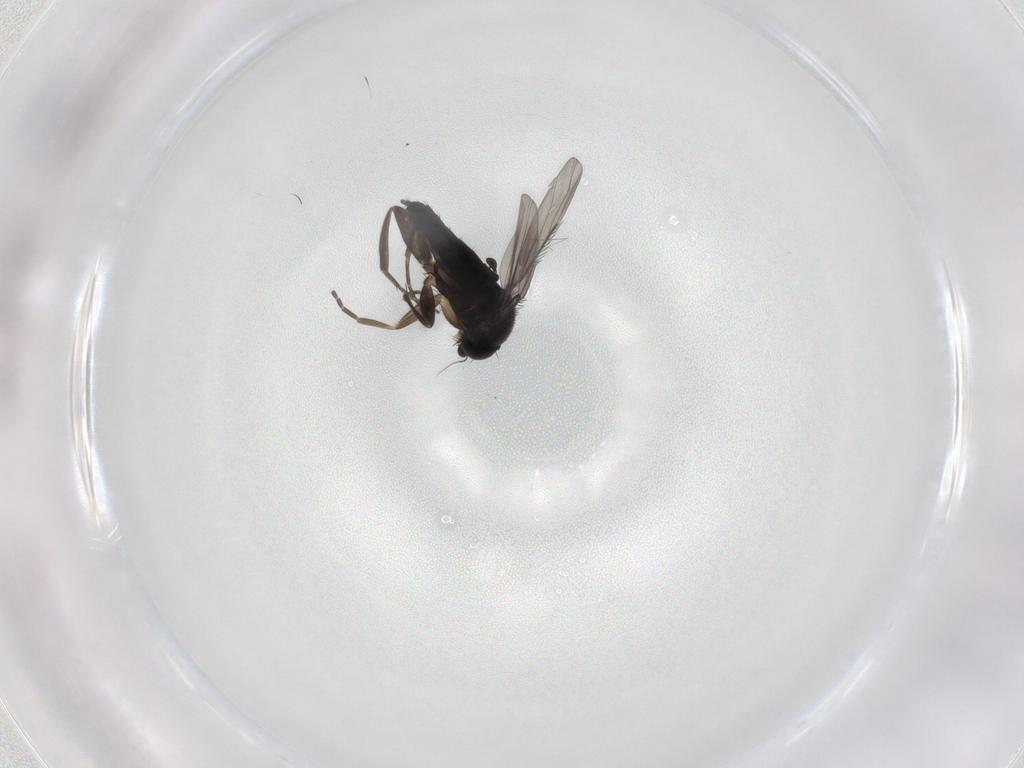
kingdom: Animalia
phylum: Arthropoda
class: Insecta
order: Diptera
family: Phoridae
